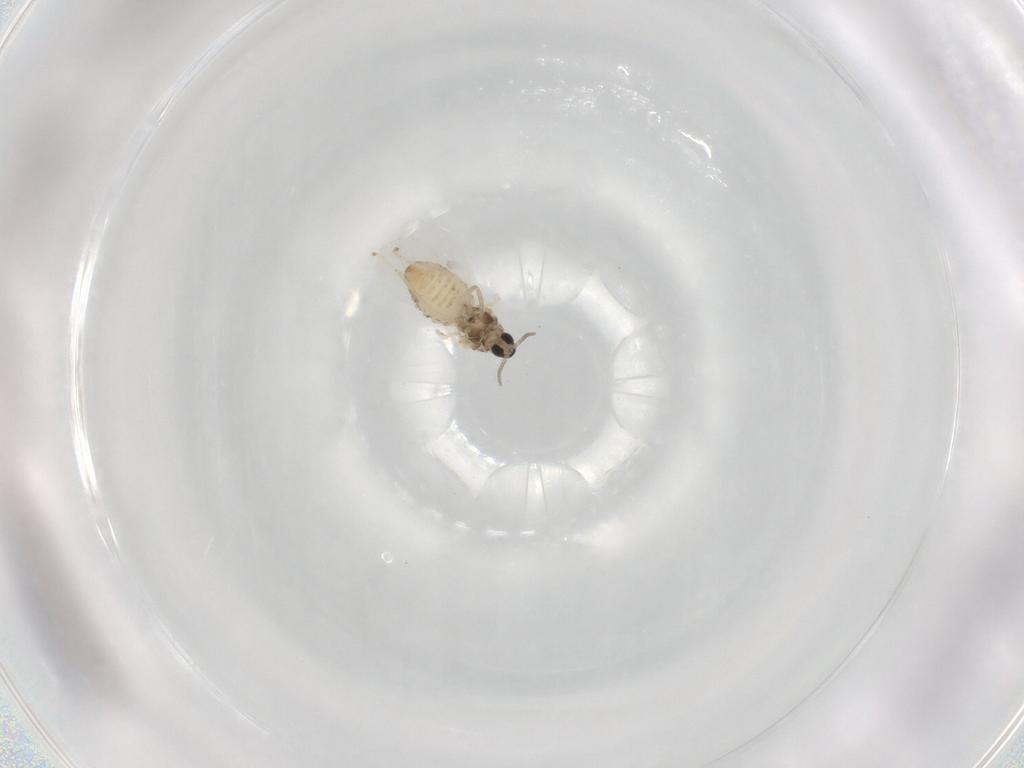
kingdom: Animalia
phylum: Arthropoda
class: Insecta
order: Diptera
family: Cecidomyiidae
